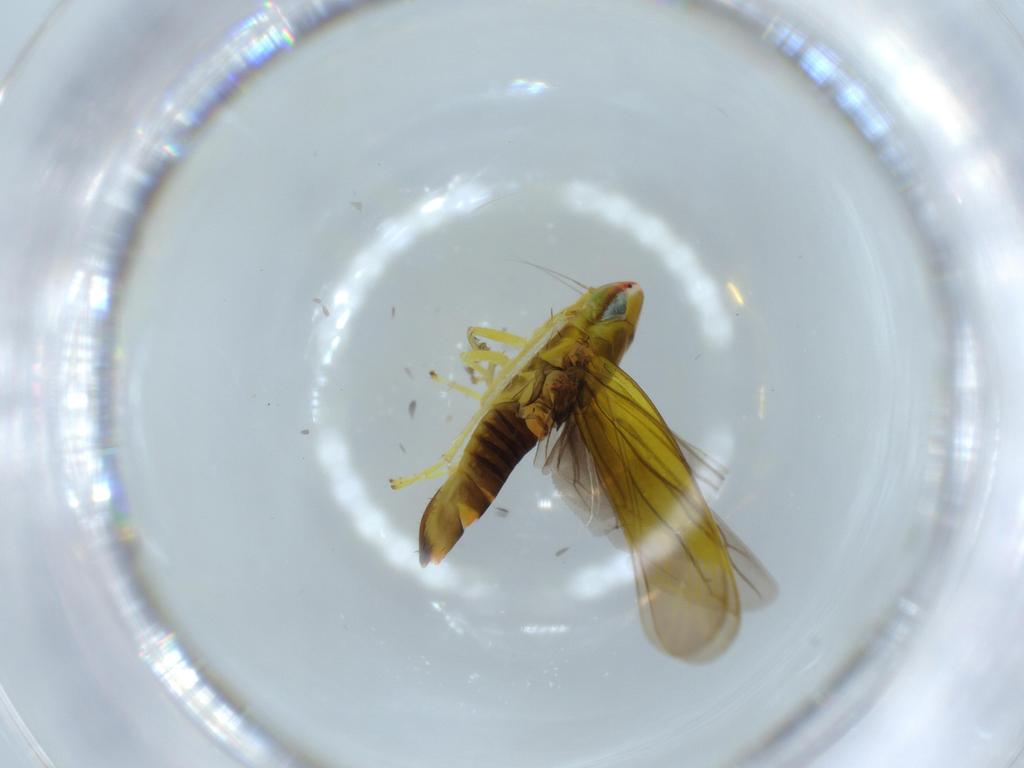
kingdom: Animalia
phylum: Arthropoda
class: Insecta
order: Hemiptera
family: Cicadellidae
